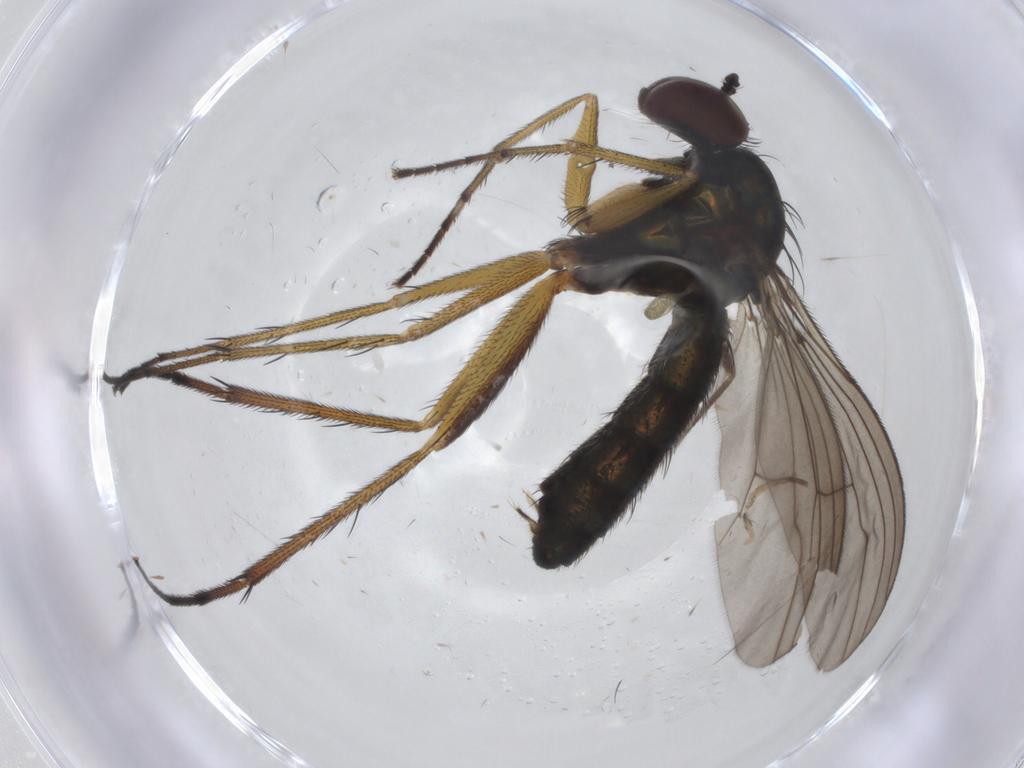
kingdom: Animalia
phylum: Arthropoda
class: Insecta
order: Diptera
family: Dolichopodidae
